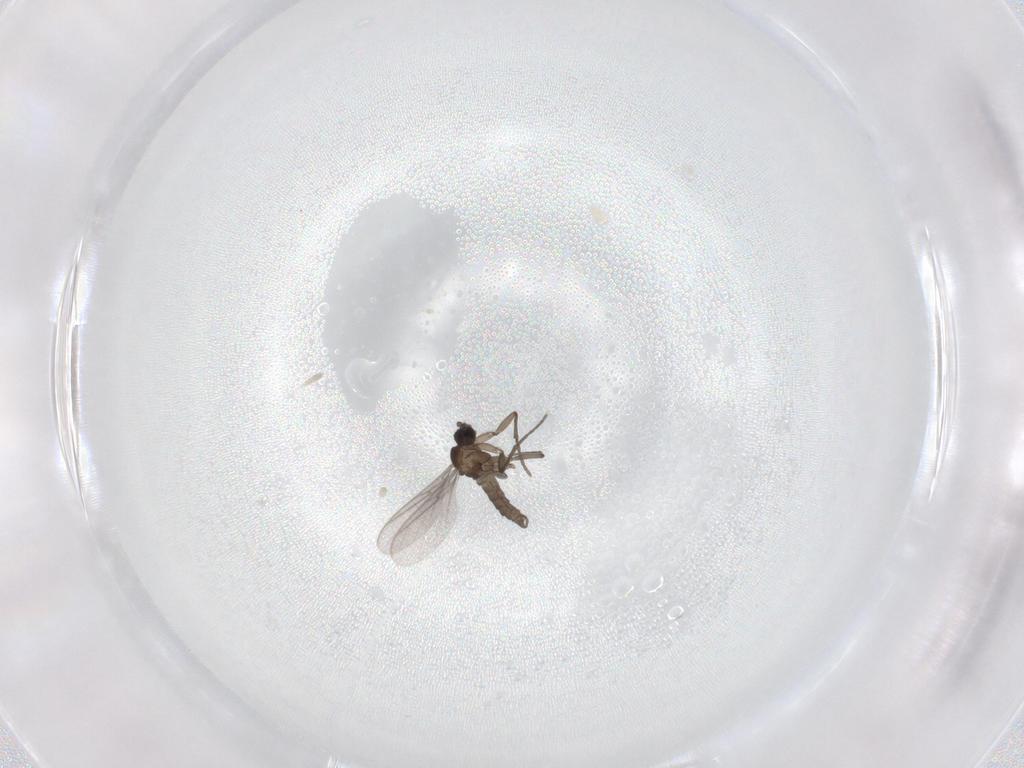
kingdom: Animalia
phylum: Arthropoda
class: Insecta
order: Diptera
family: Sciaridae
